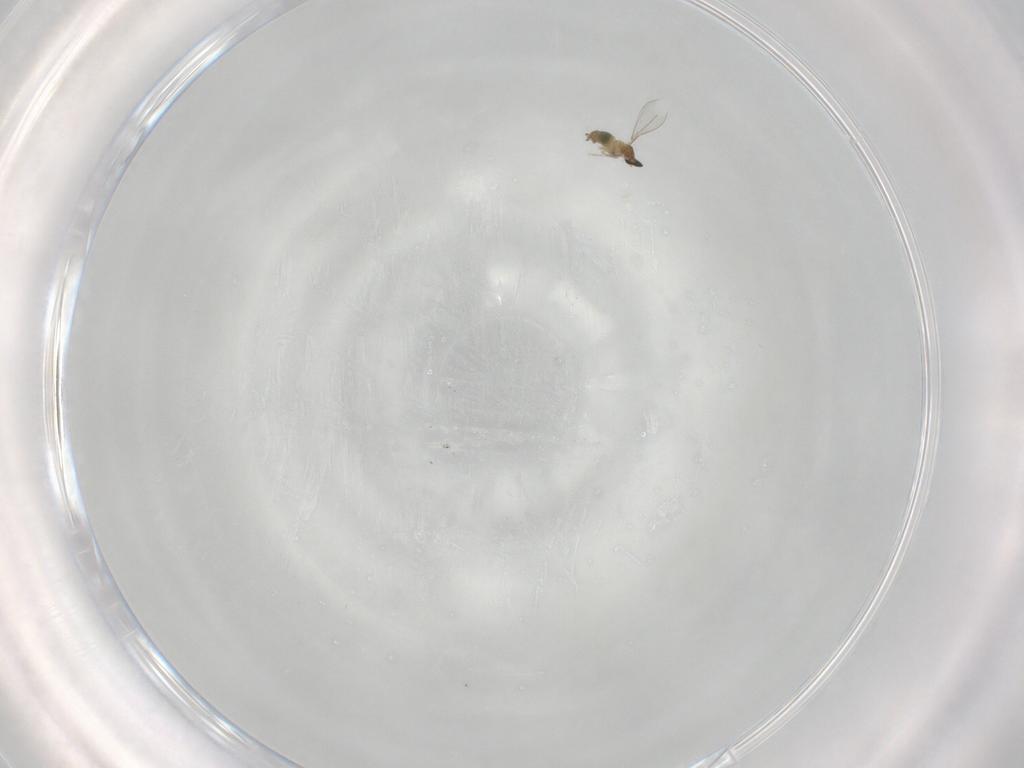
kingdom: Animalia
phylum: Arthropoda
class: Insecta
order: Diptera
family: Cecidomyiidae
